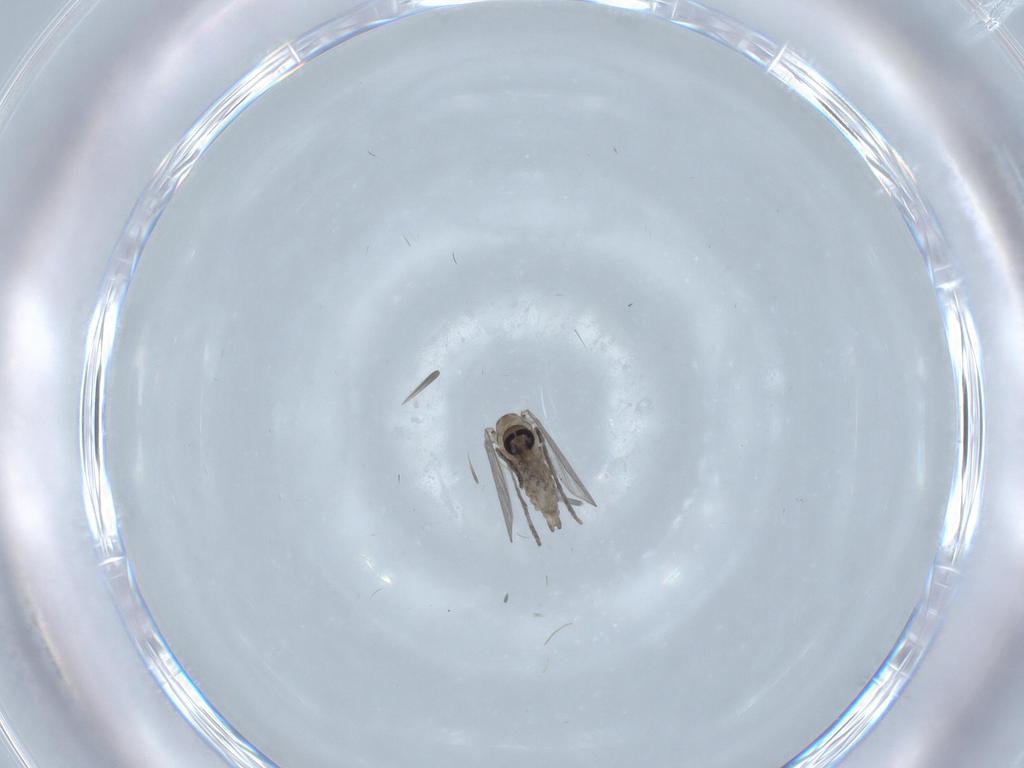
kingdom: Animalia
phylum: Arthropoda
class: Insecta
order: Diptera
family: Psychodidae
